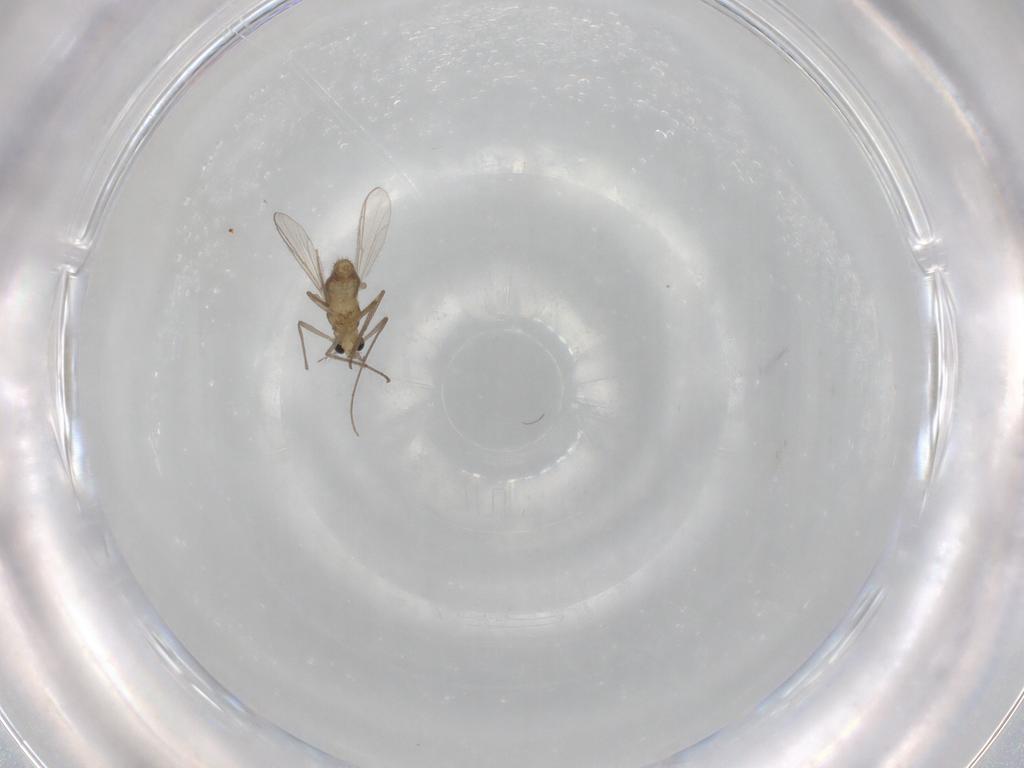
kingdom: Animalia
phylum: Arthropoda
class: Insecta
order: Diptera
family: Chironomidae
